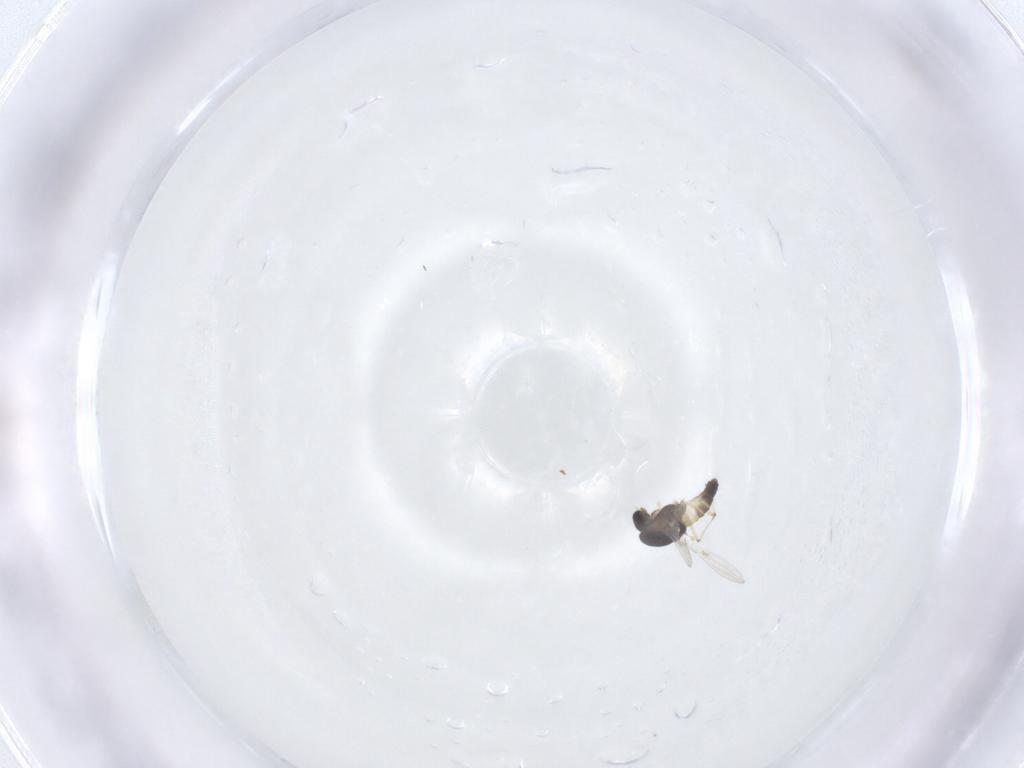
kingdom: Animalia
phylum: Arthropoda
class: Insecta
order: Diptera
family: Chironomidae
